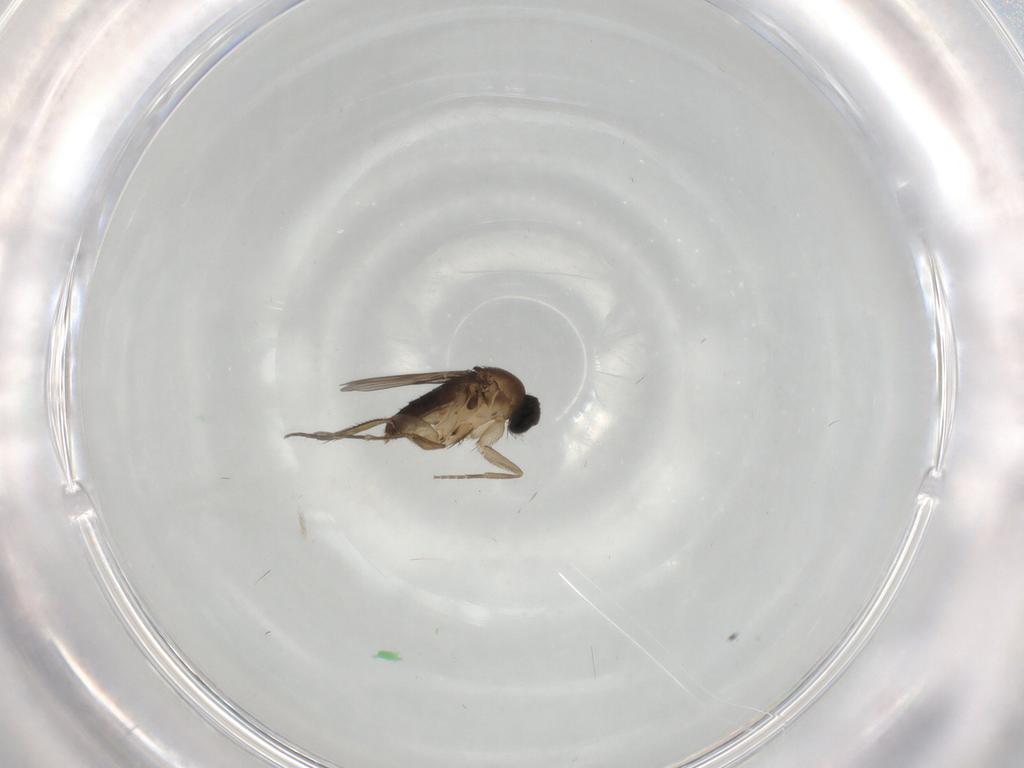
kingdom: Animalia
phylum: Arthropoda
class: Insecta
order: Diptera
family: Phoridae
